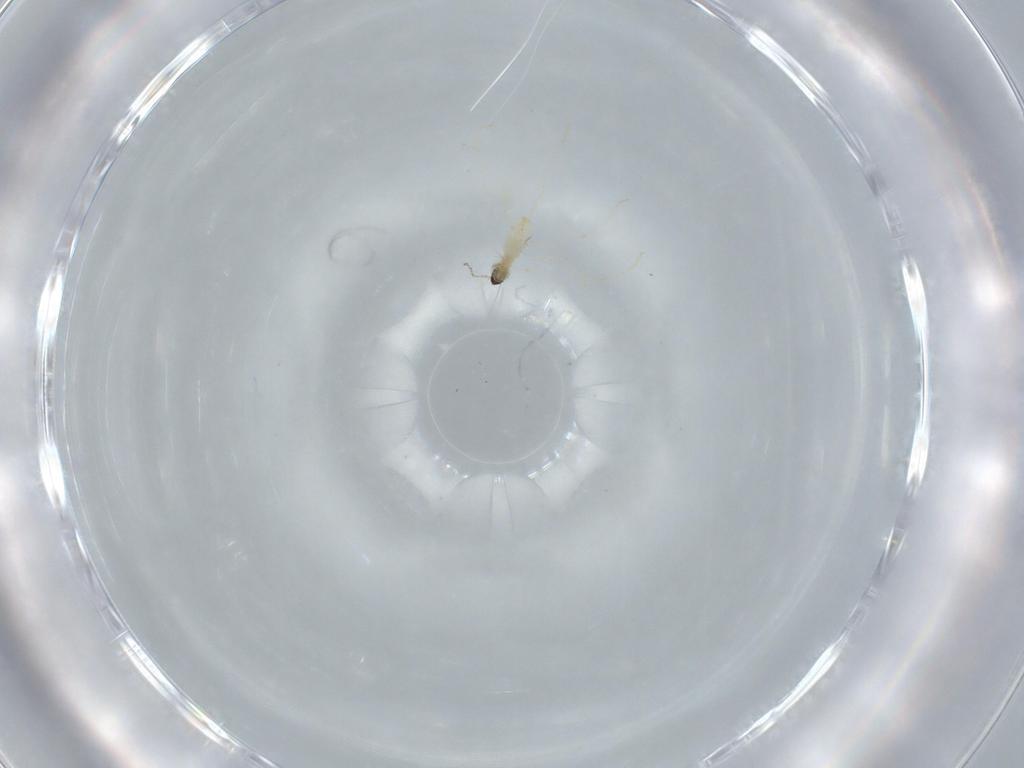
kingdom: Animalia
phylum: Arthropoda
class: Insecta
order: Diptera
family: Cecidomyiidae
